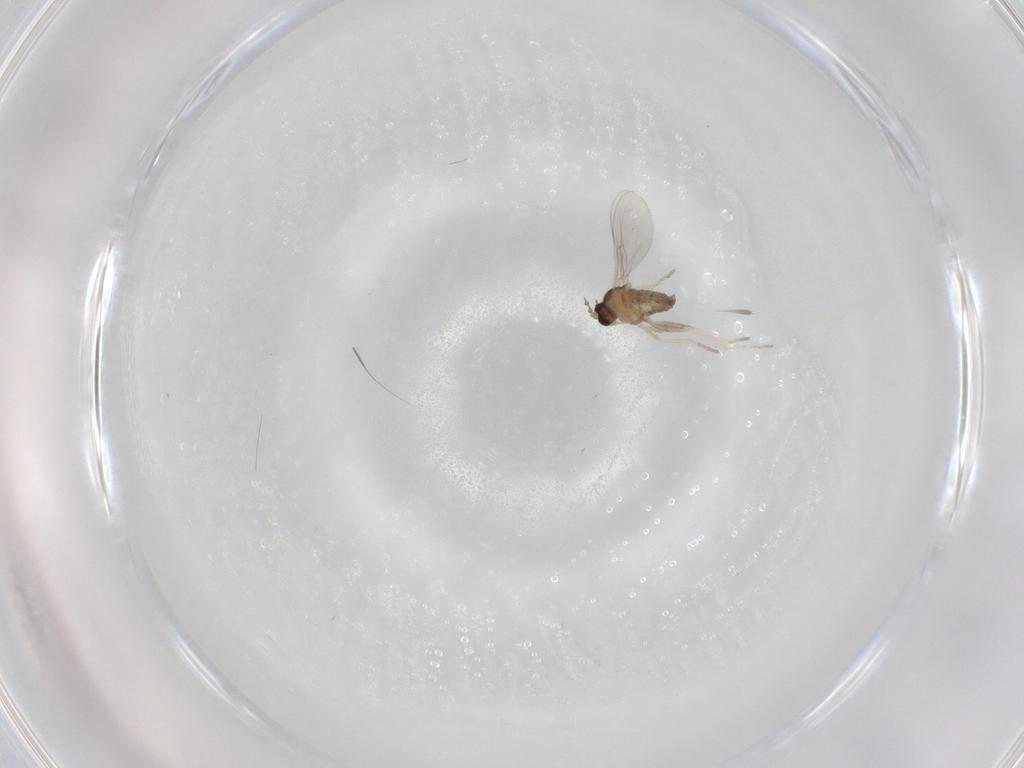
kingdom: Animalia
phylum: Arthropoda
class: Insecta
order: Diptera
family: Cecidomyiidae
